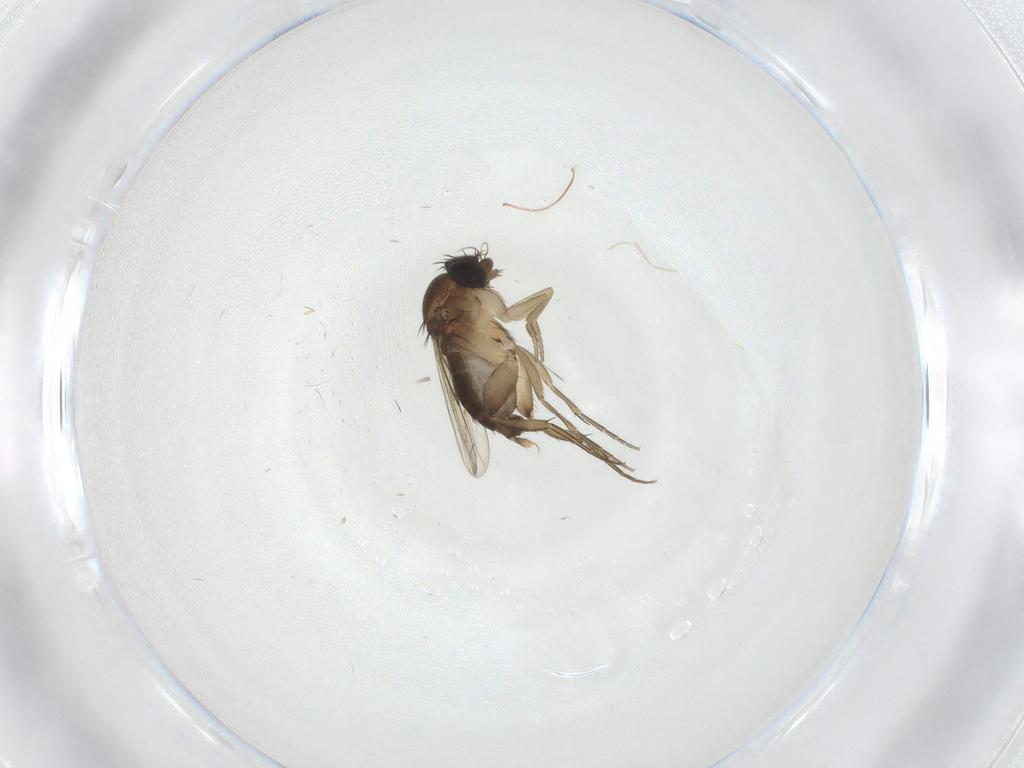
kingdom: Animalia
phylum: Arthropoda
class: Insecta
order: Diptera
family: Phoridae
